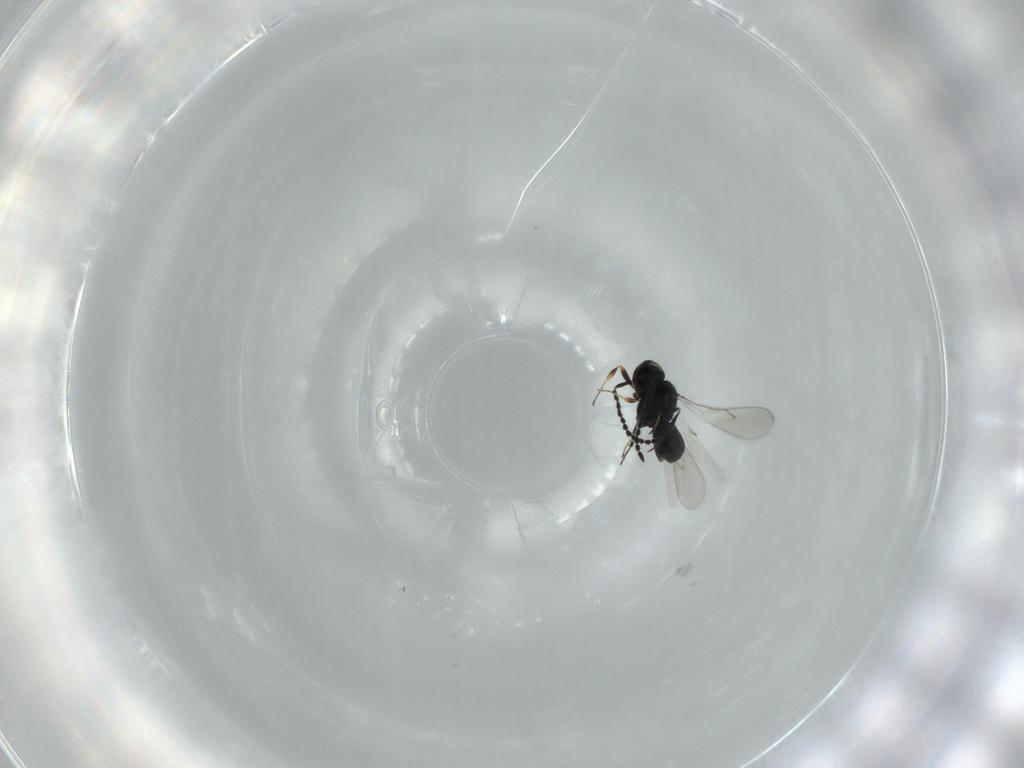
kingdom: Animalia
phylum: Arthropoda
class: Insecta
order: Hymenoptera
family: Scelionidae
